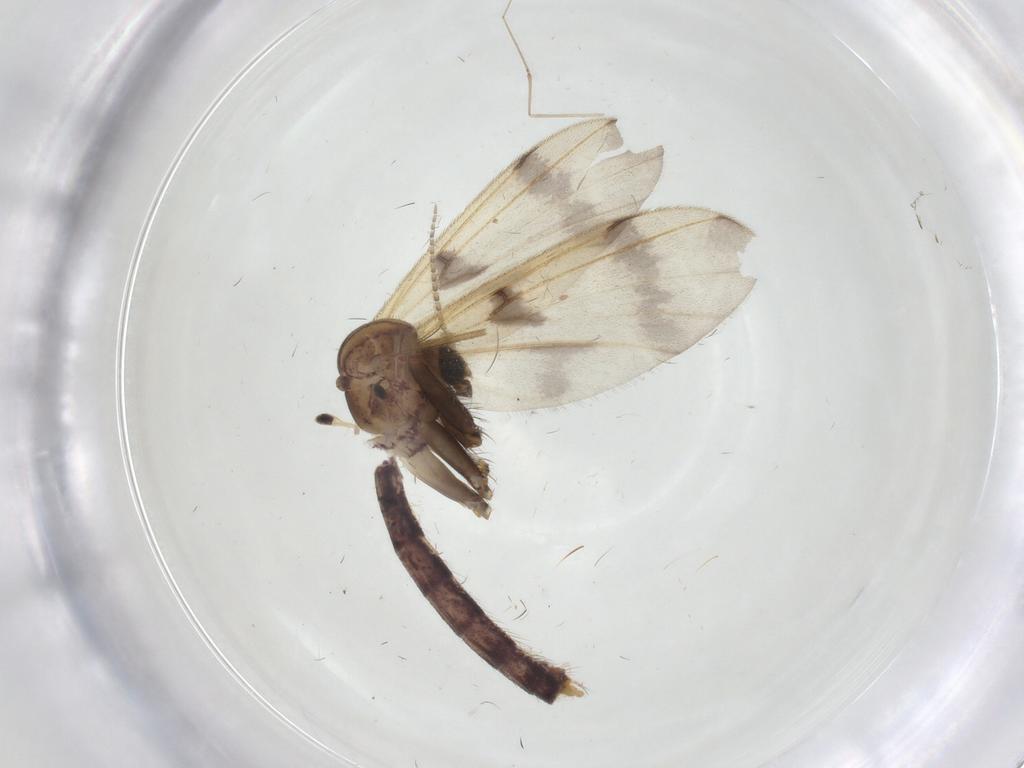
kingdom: Animalia
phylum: Arthropoda
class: Insecta
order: Diptera
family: Mycetophilidae
